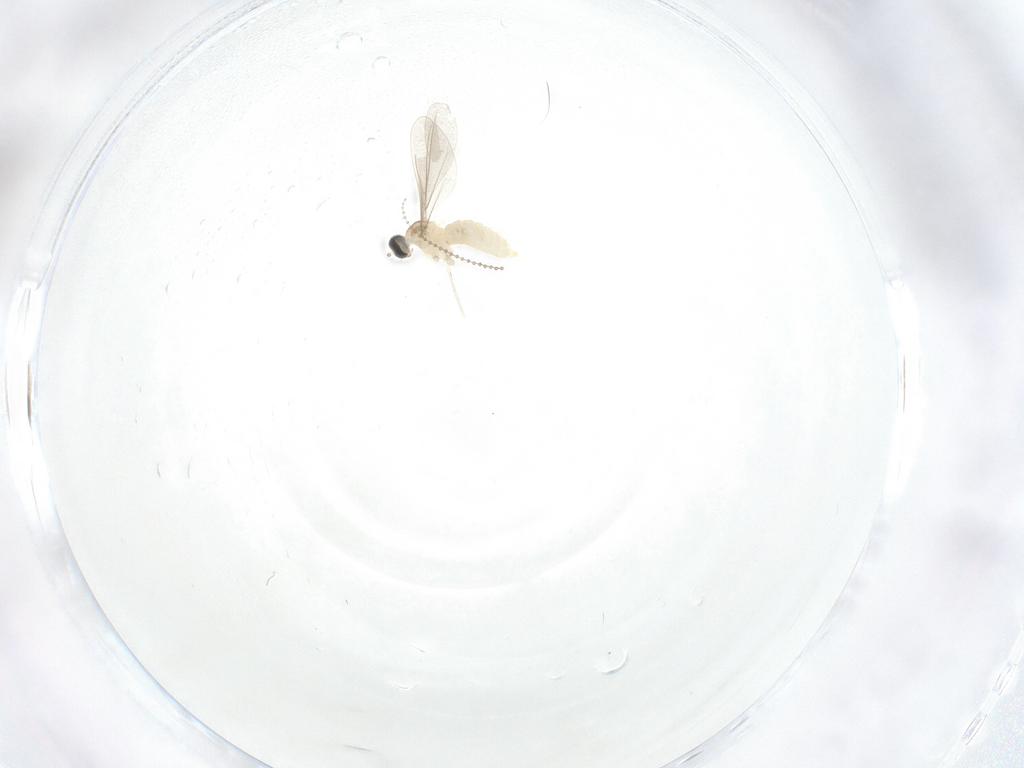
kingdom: Animalia
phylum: Arthropoda
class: Insecta
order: Diptera
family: Cecidomyiidae
